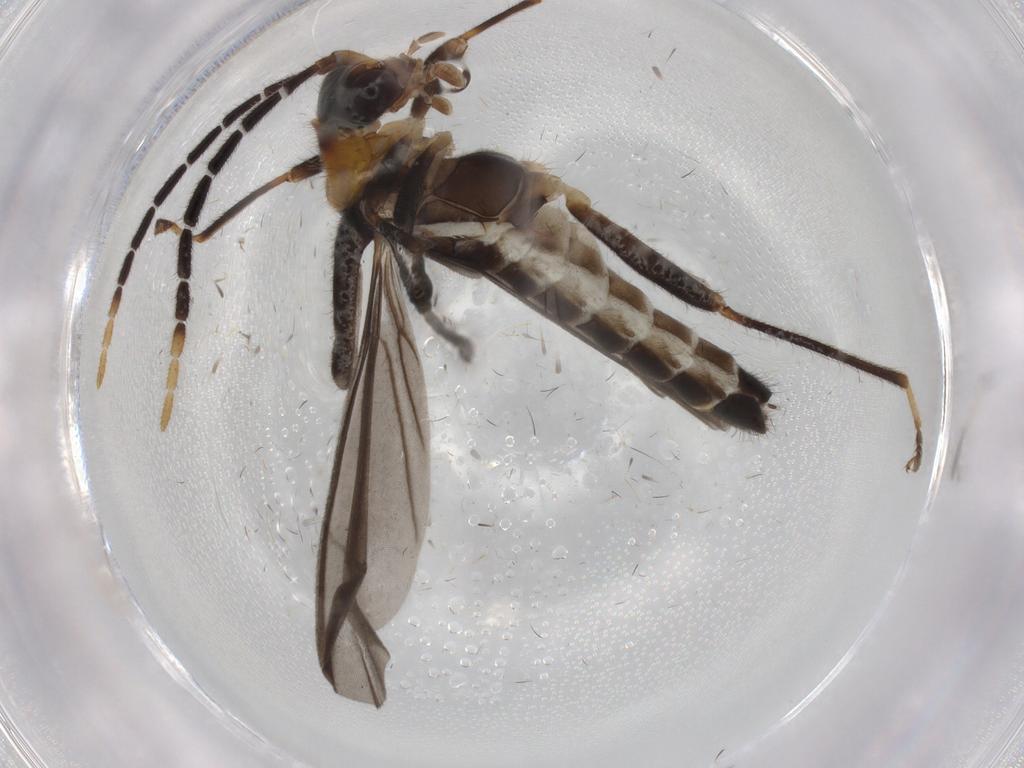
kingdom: Animalia
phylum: Arthropoda
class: Insecta
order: Coleoptera
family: Cantharidae
